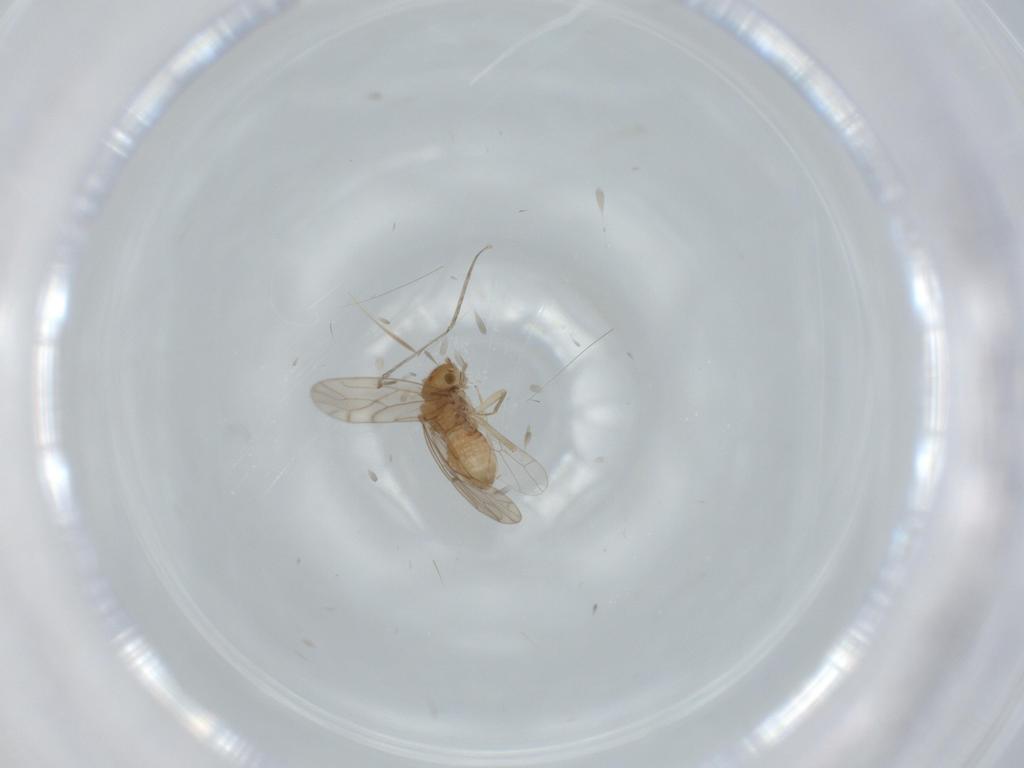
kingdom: Animalia
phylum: Arthropoda
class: Insecta
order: Psocodea
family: Ectopsocidae
